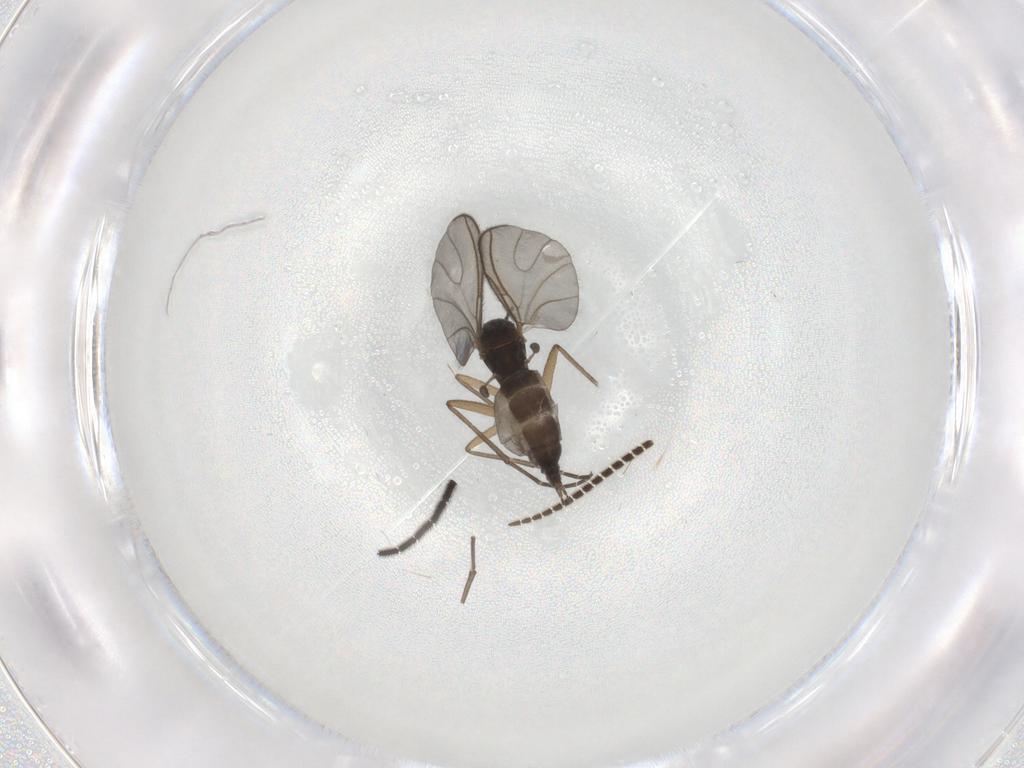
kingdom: Animalia
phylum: Arthropoda
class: Insecta
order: Diptera
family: Sciaridae
